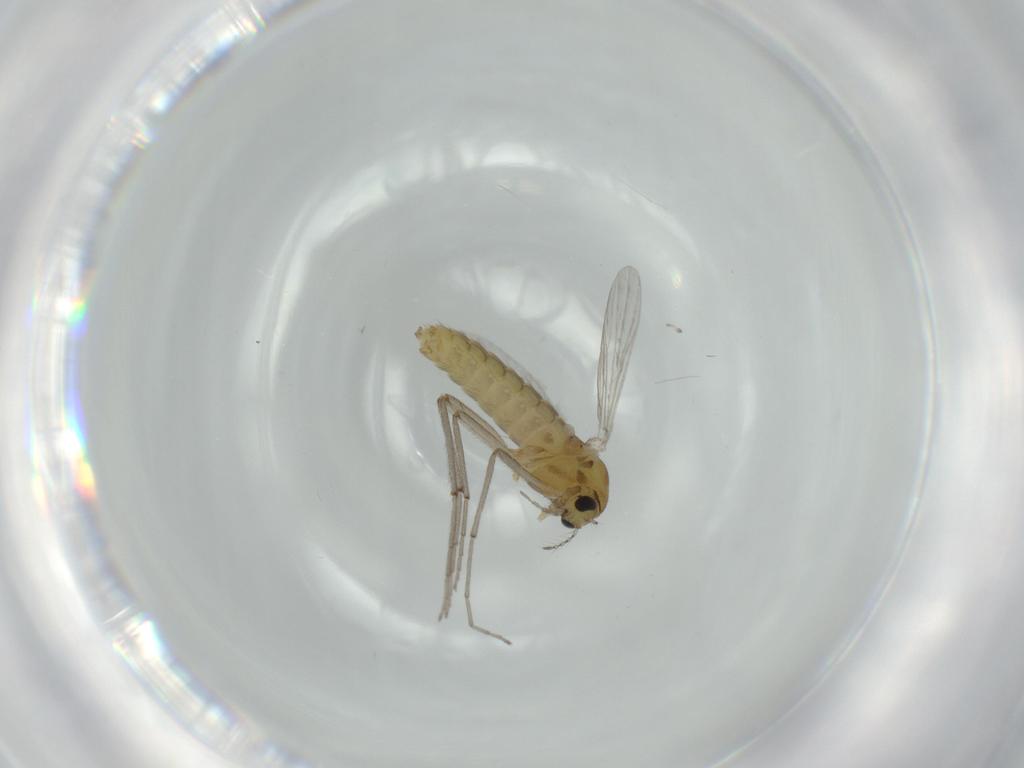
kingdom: Animalia
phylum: Arthropoda
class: Insecta
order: Diptera
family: Chironomidae
